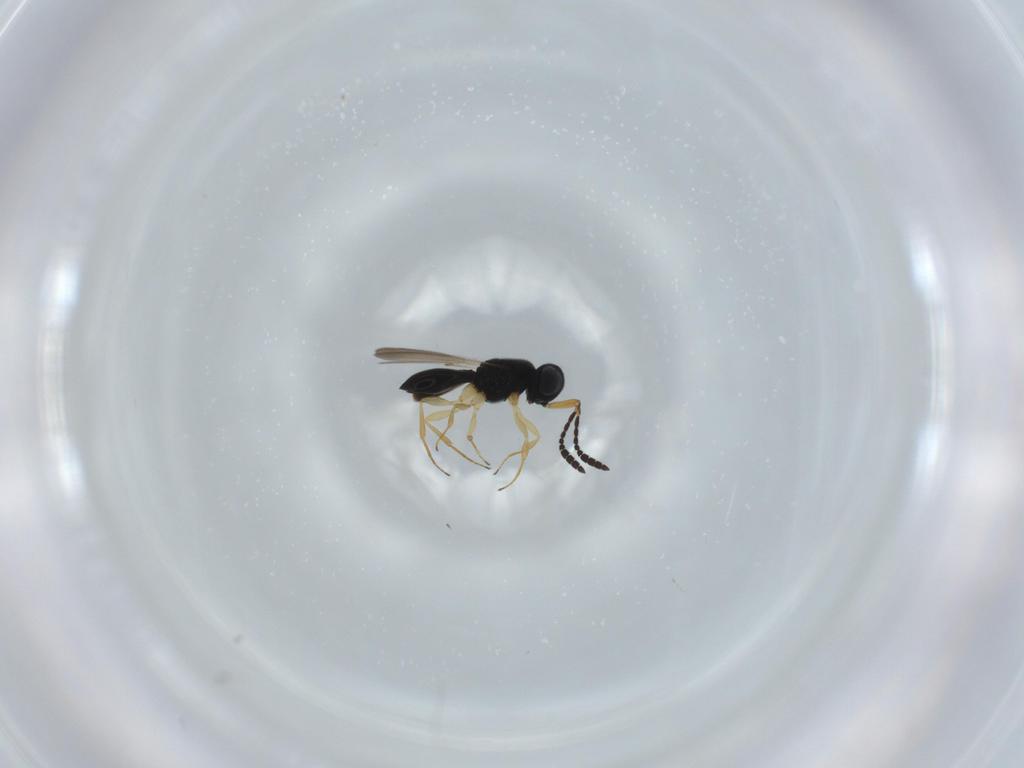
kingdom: Animalia
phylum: Arthropoda
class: Insecta
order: Hymenoptera
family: Scelionidae
